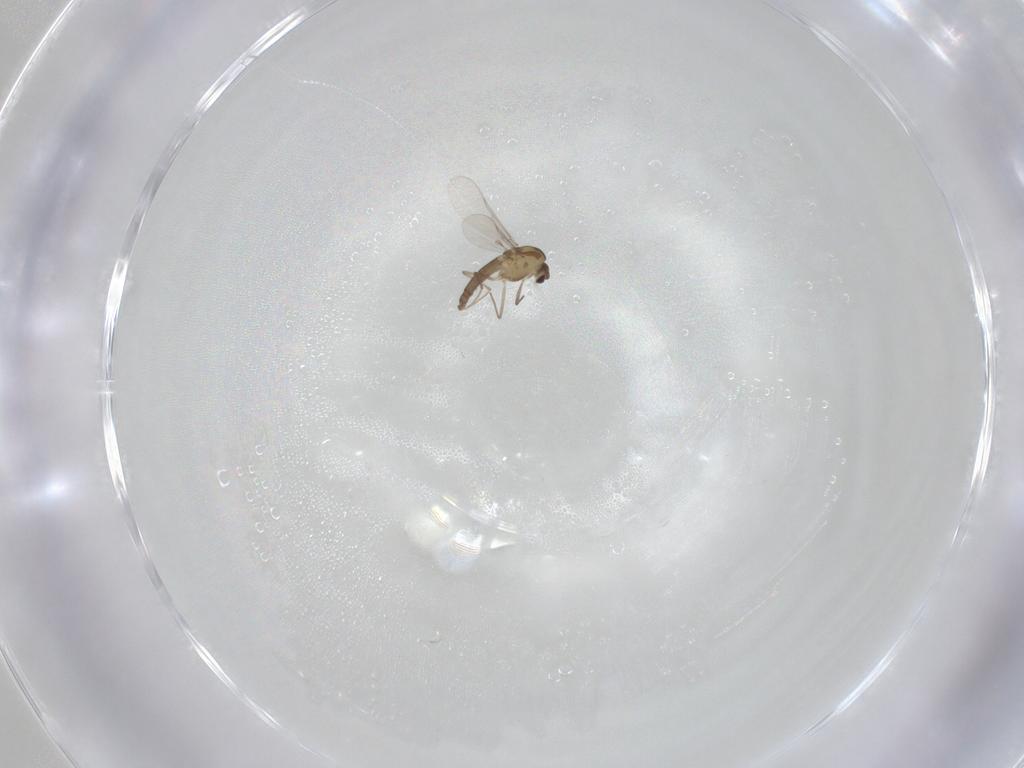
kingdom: Animalia
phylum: Arthropoda
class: Insecta
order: Diptera
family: Chironomidae
